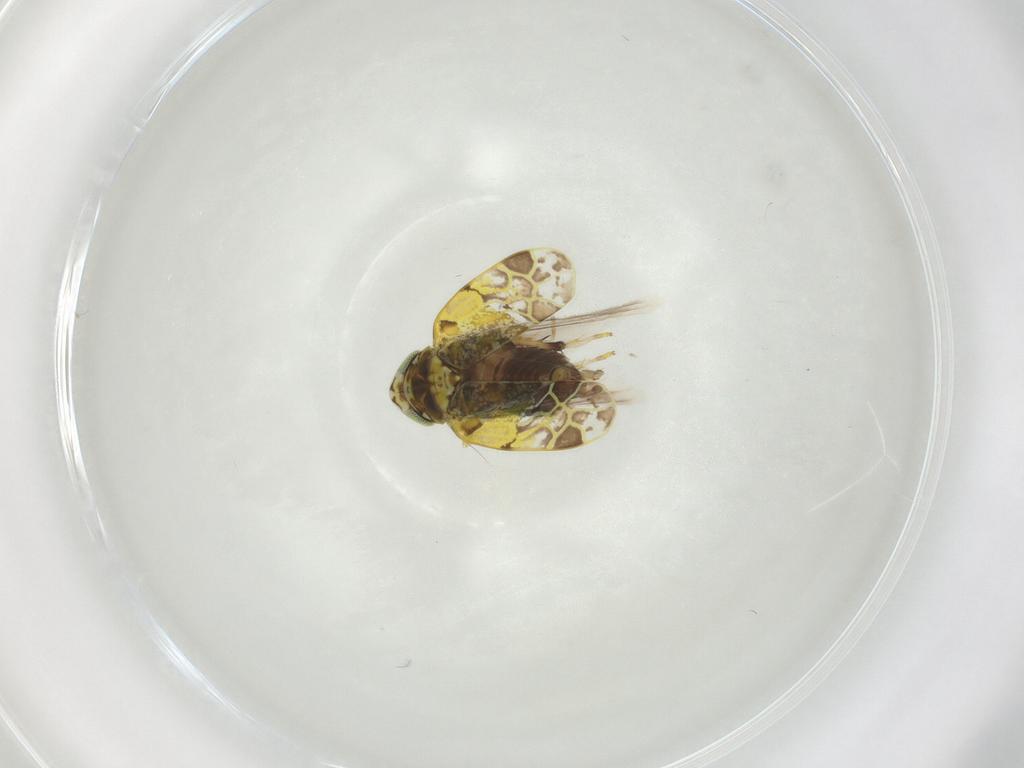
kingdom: Animalia
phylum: Arthropoda
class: Insecta
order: Hemiptera
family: Cicadellidae
